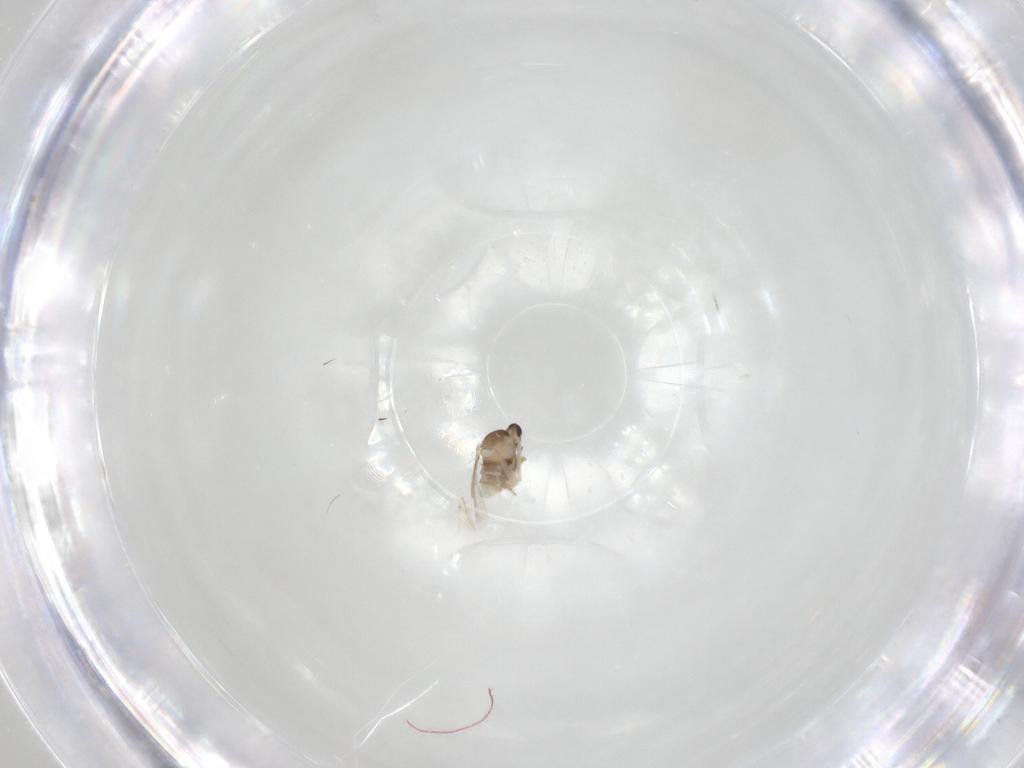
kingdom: Animalia
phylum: Arthropoda
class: Insecta
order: Diptera
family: Cecidomyiidae
